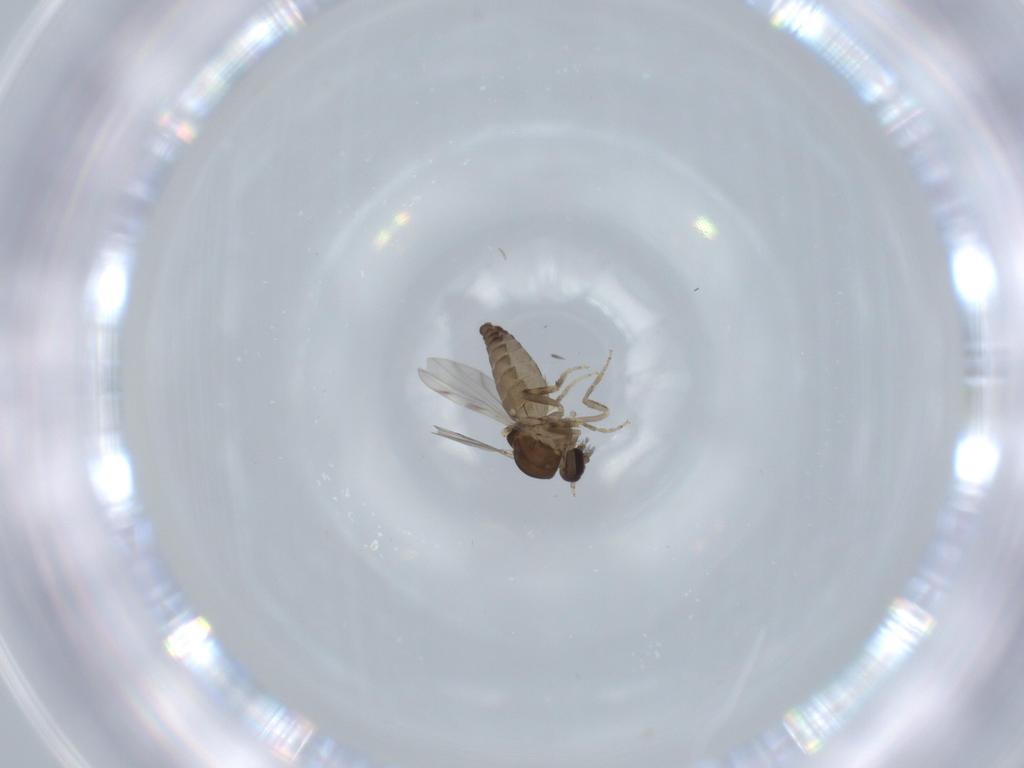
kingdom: Animalia
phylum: Arthropoda
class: Insecta
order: Diptera
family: Ceratopogonidae
